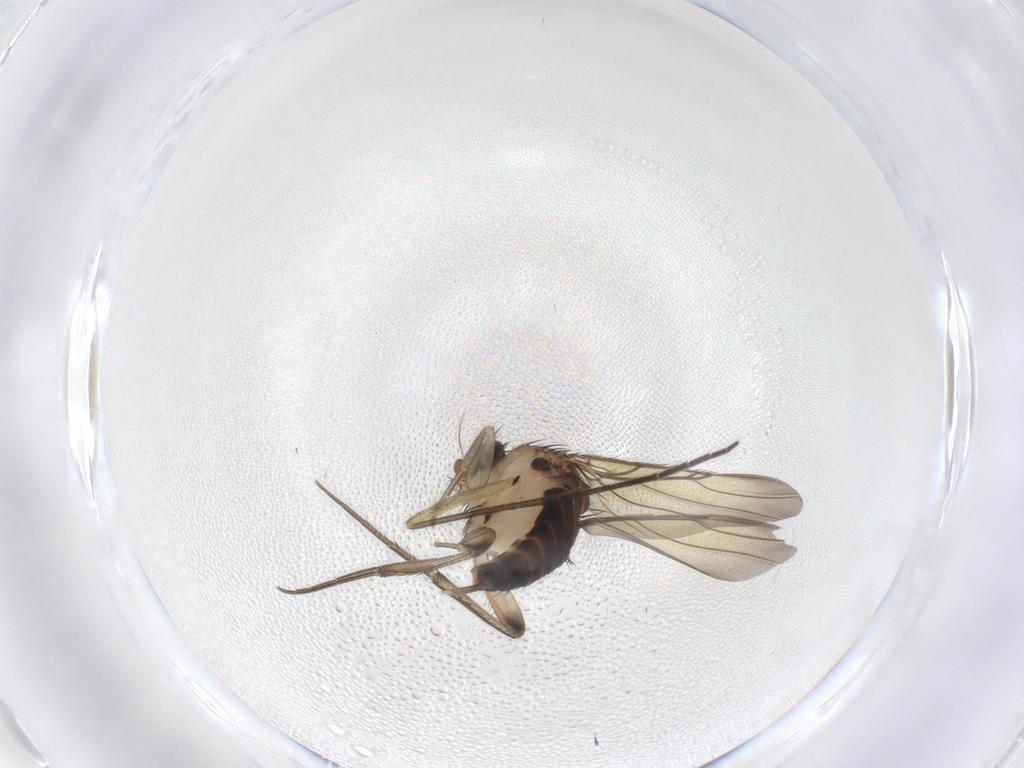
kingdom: Animalia
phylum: Arthropoda
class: Insecta
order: Diptera
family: Phoridae
